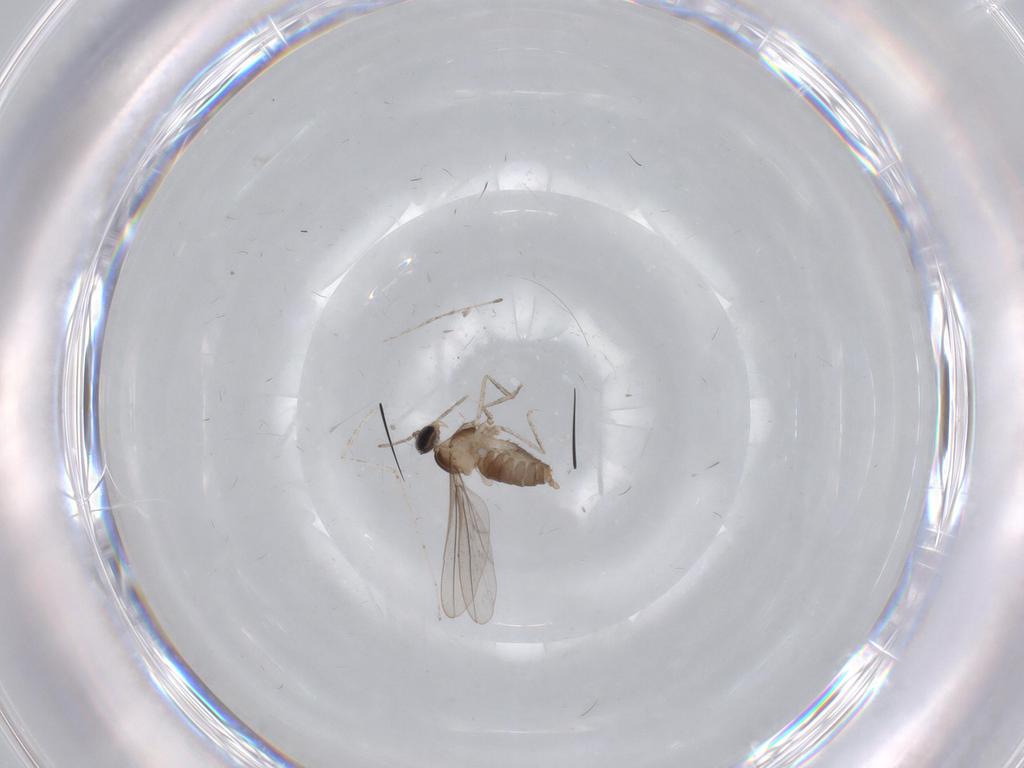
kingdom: Animalia
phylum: Arthropoda
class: Insecta
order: Diptera
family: Cecidomyiidae
